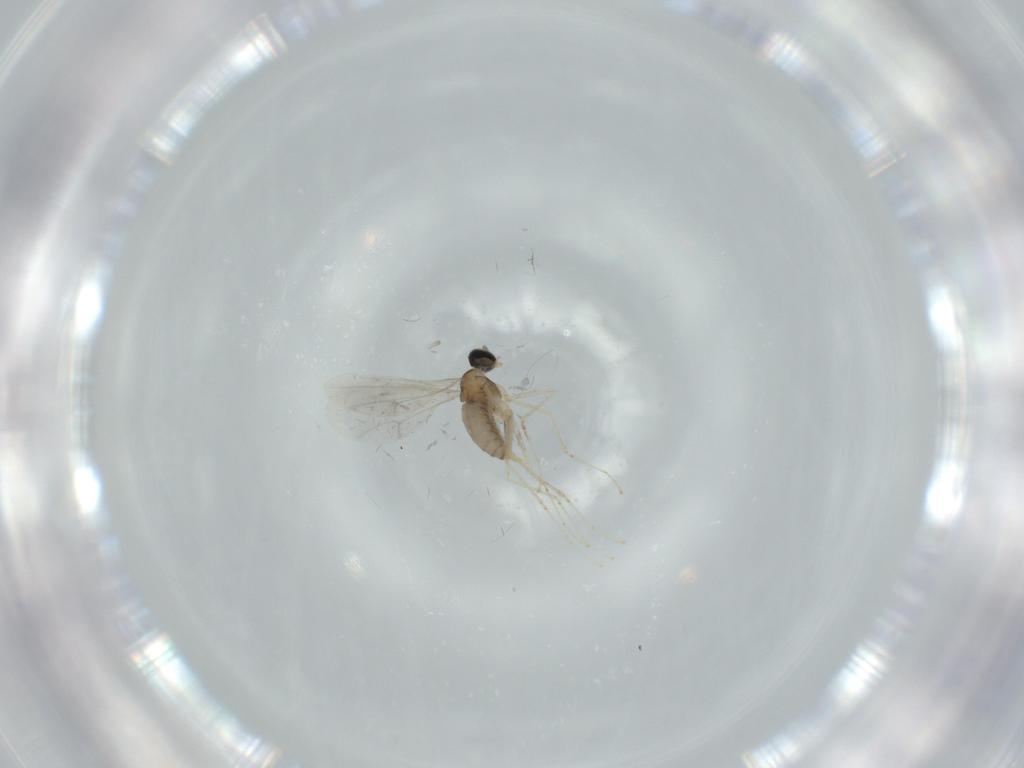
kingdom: Animalia
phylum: Arthropoda
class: Insecta
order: Diptera
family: Cecidomyiidae
